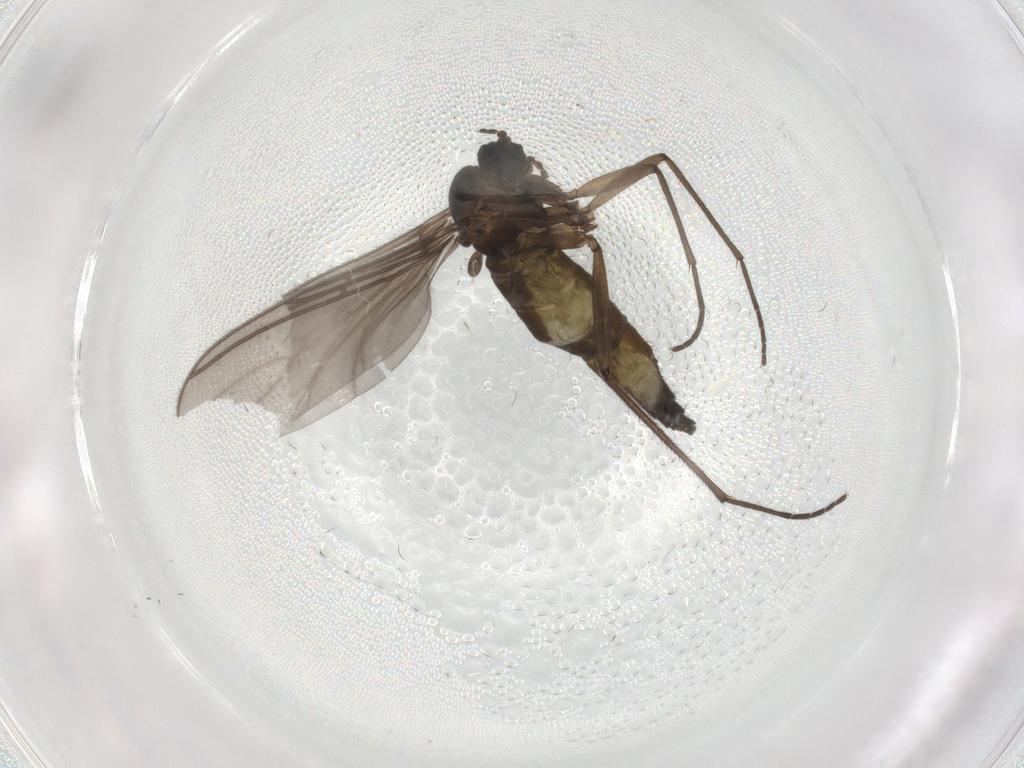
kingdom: Animalia
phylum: Arthropoda
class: Insecta
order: Diptera
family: Sciaridae
